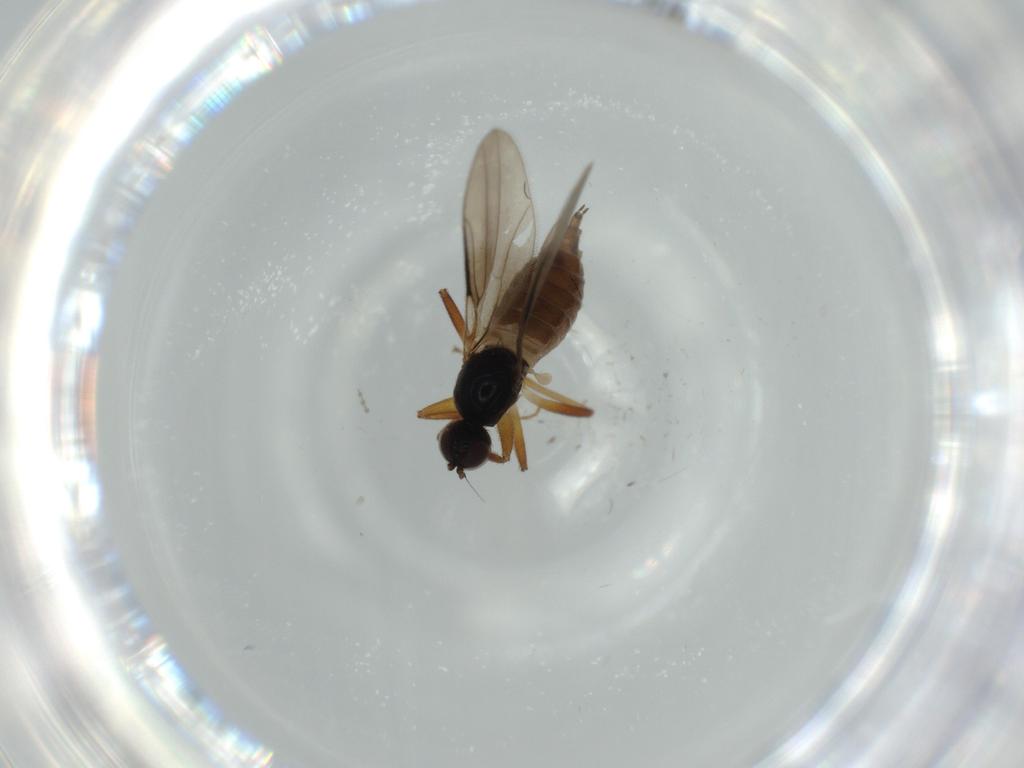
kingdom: Animalia
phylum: Arthropoda
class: Insecta
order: Diptera
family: Hybotidae
